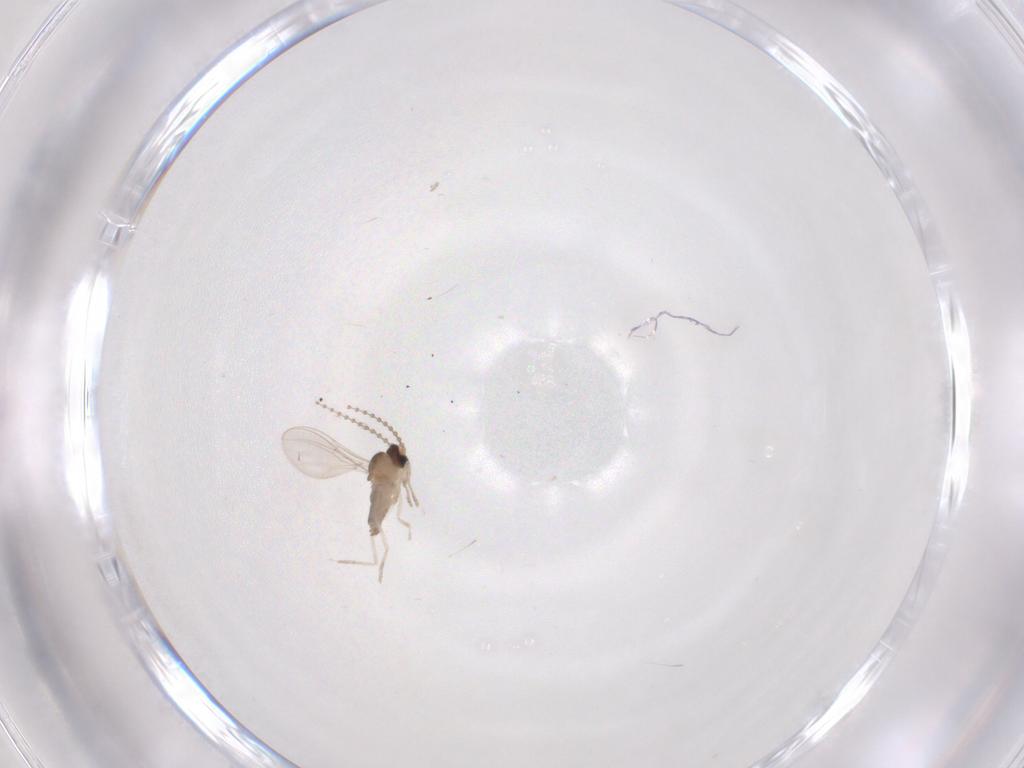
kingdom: Animalia
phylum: Arthropoda
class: Insecta
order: Diptera
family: Cecidomyiidae
